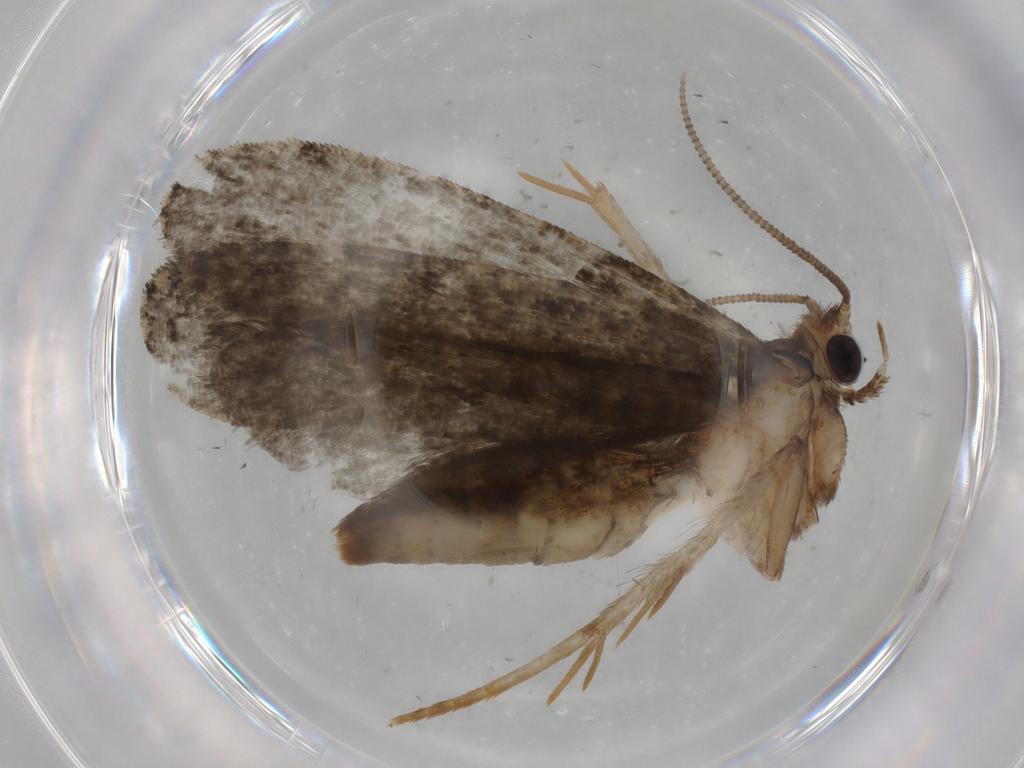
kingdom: Animalia
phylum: Arthropoda
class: Insecta
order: Lepidoptera
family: Tineidae
